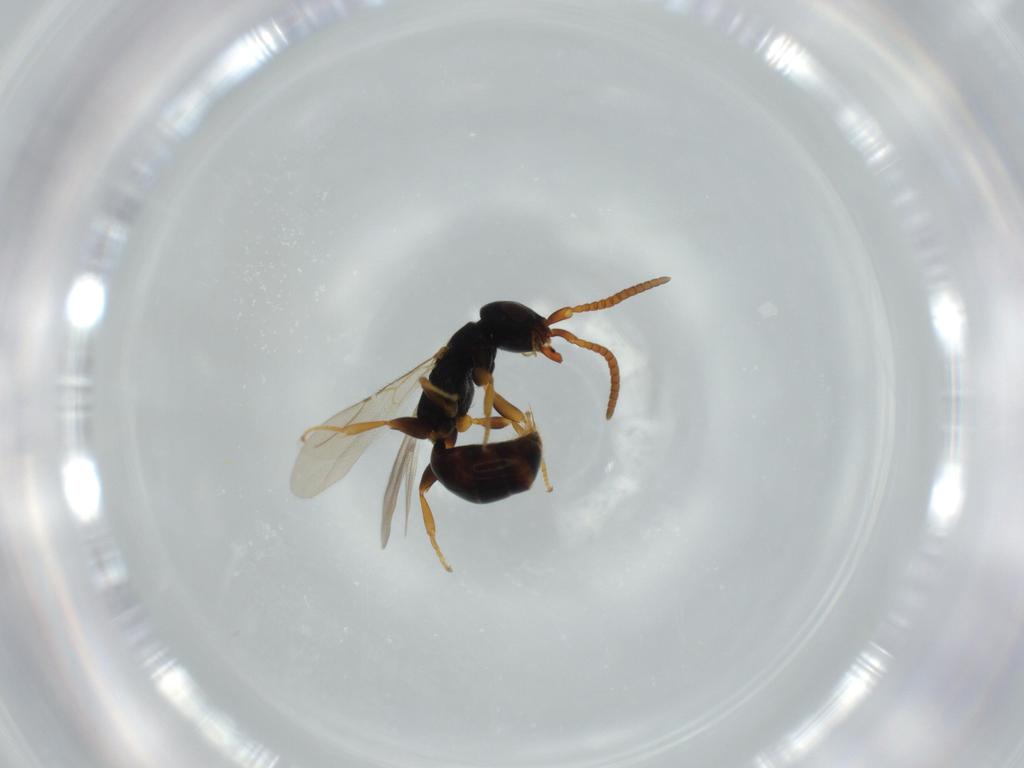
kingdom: Animalia
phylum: Arthropoda
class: Insecta
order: Hymenoptera
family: Bethylidae
